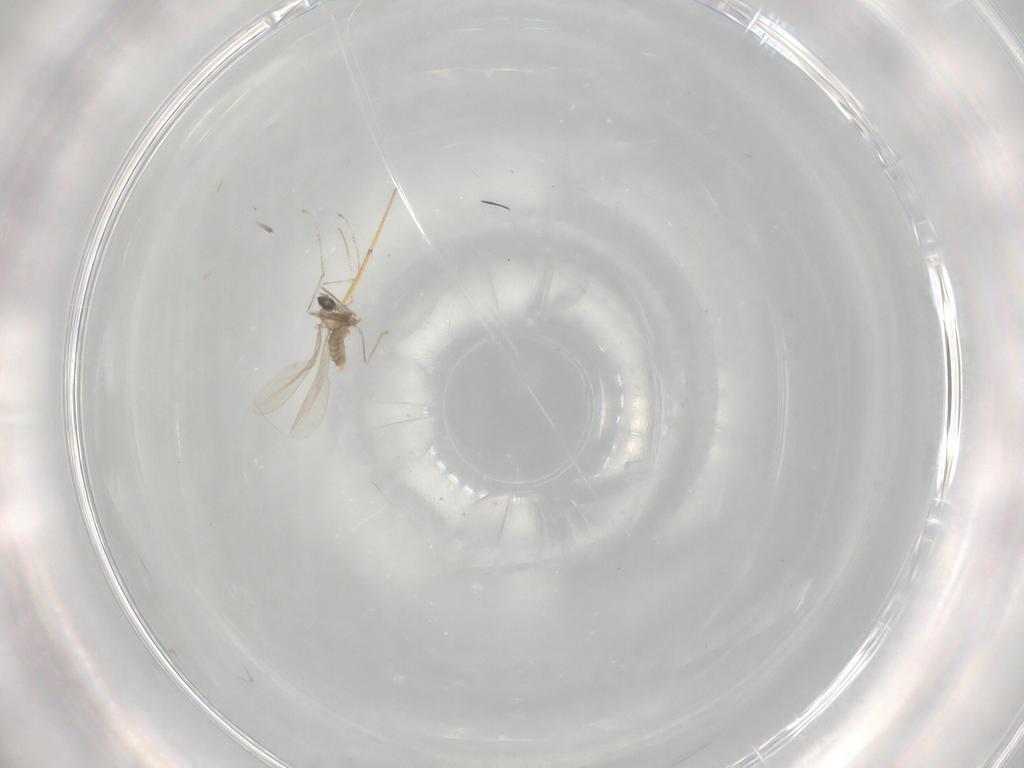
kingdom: Animalia
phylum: Arthropoda
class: Insecta
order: Diptera
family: Cecidomyiidae
